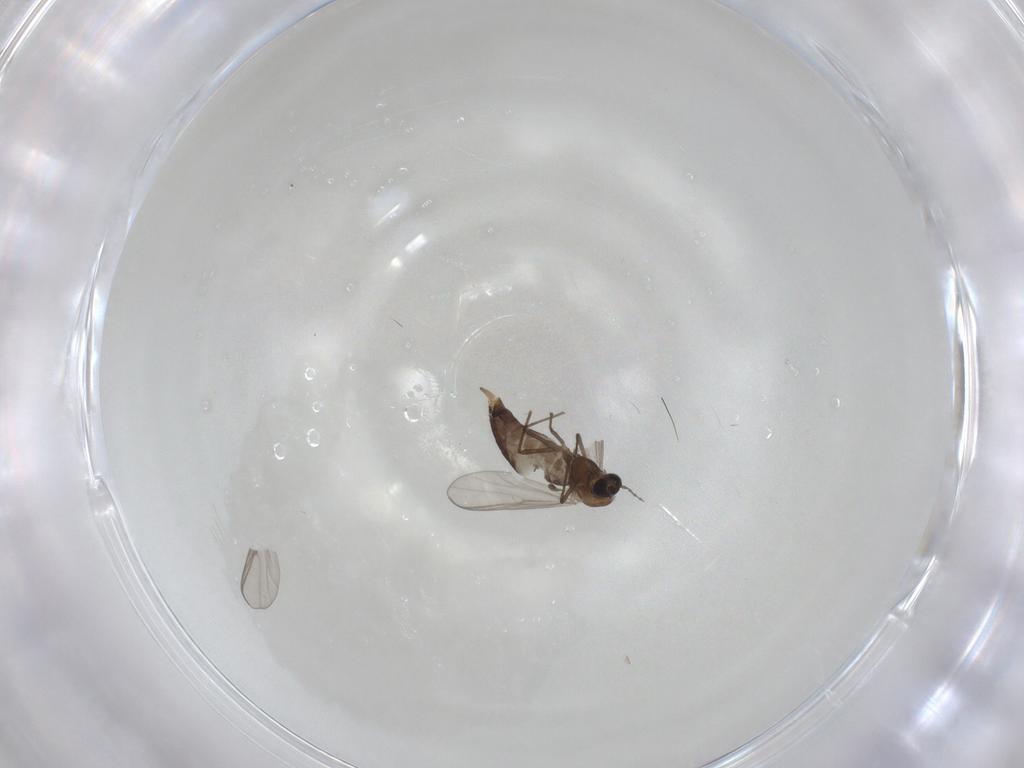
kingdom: Animalia
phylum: Arthropoda
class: Insecta
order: Diptera
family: Chironomidae
